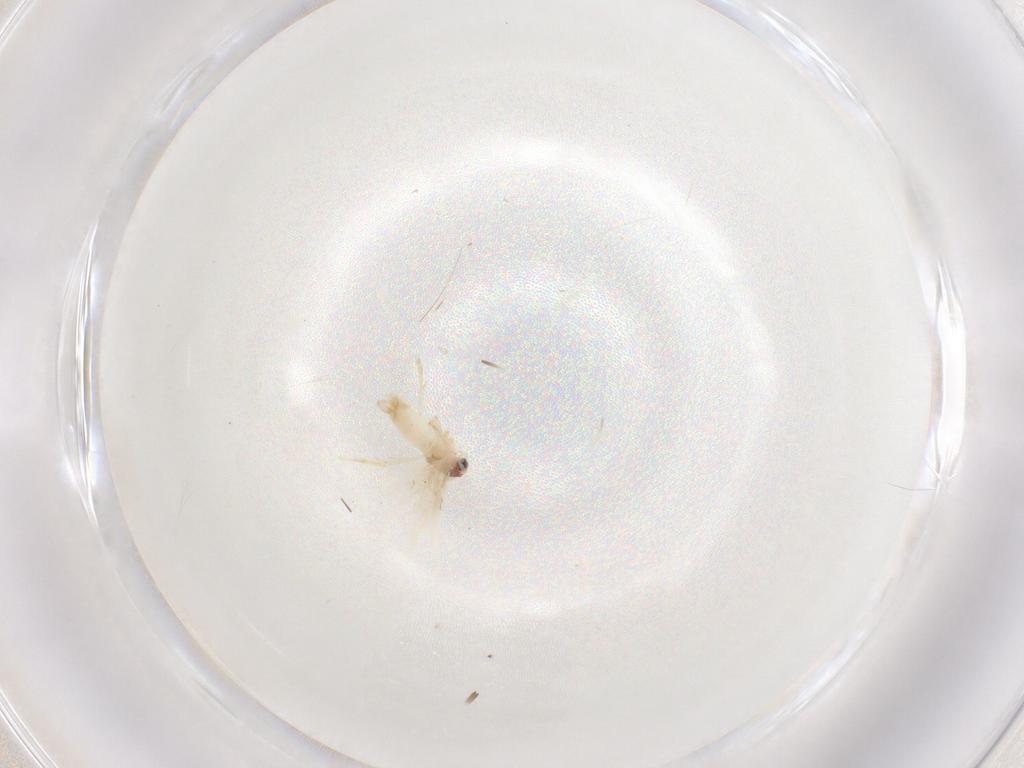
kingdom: Animalia
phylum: Arthropoda
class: Insecta
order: Lepidoptera
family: Nepticulidae
